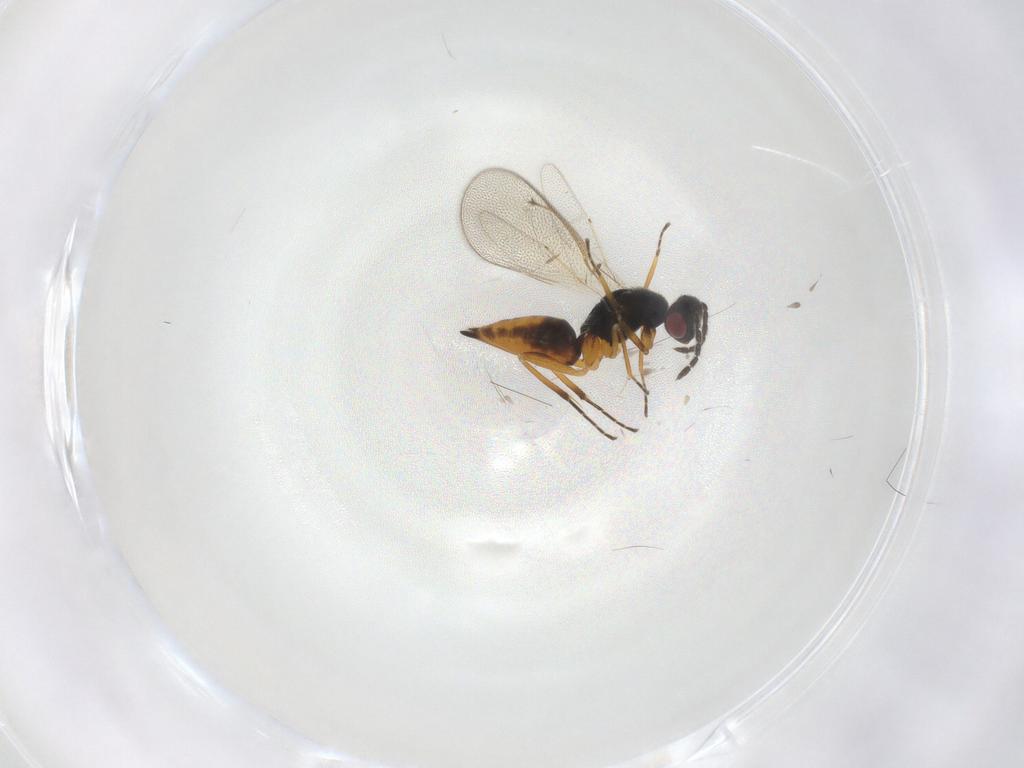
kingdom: Animalia
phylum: Arthropoda
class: Insecta
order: Hymenoptera
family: Eulophidae
